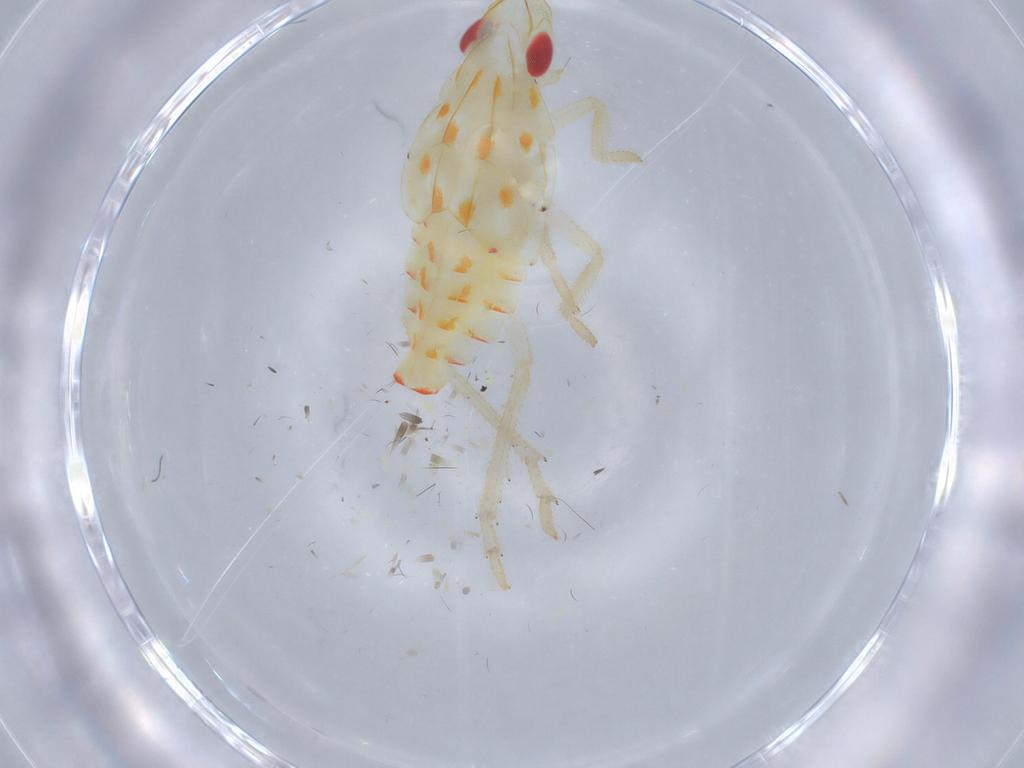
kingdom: Animalia
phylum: Arthropoda
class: Insecta
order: Hemiptera
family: Tropiduchidae
